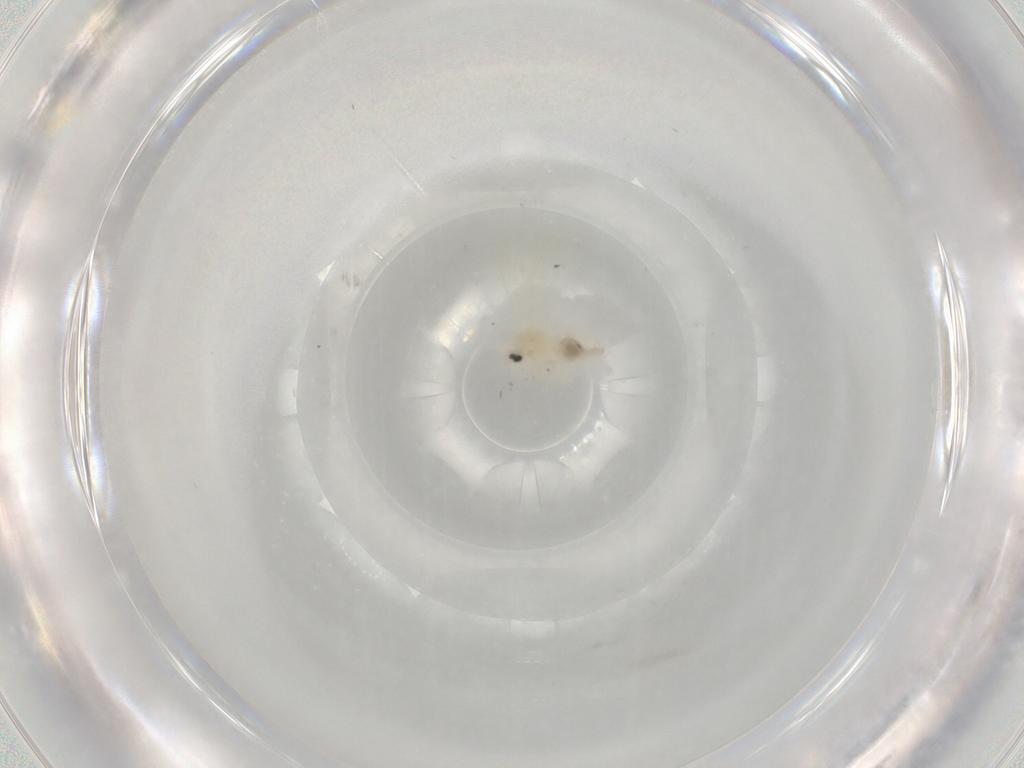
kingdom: Animalia
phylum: Arthropoda
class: Insecta
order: Hemiptera
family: Aleyrodidae
